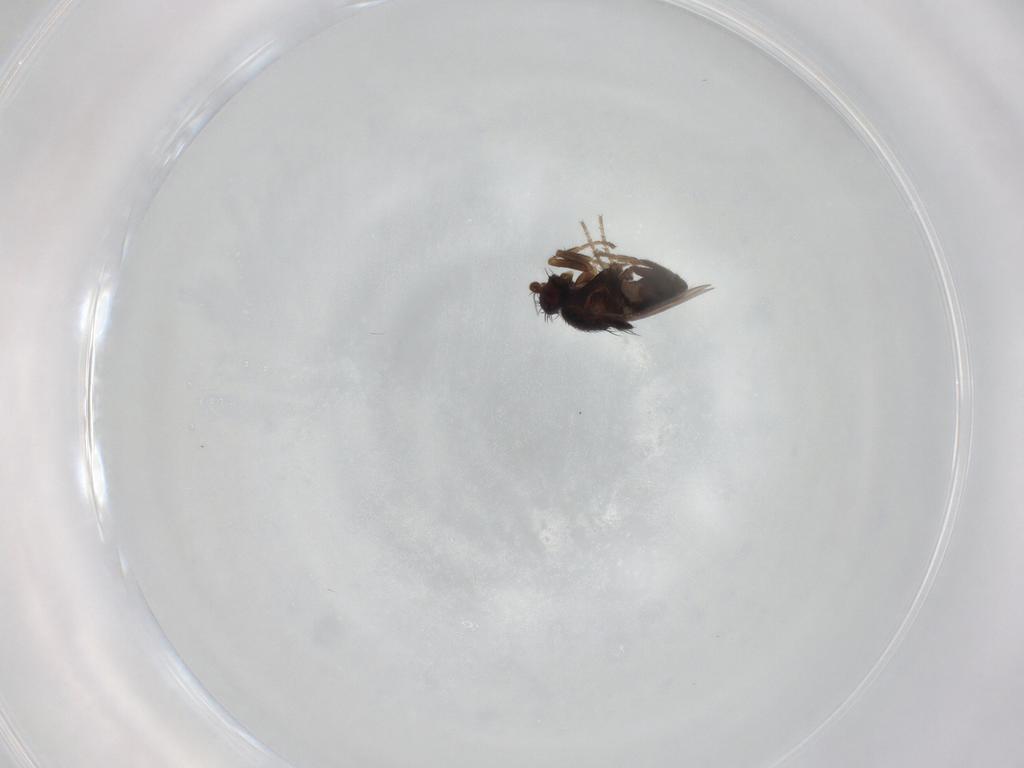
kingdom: Animalia
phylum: Arthropoda
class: Insecta
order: Diptera
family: Sphaeroceridae
